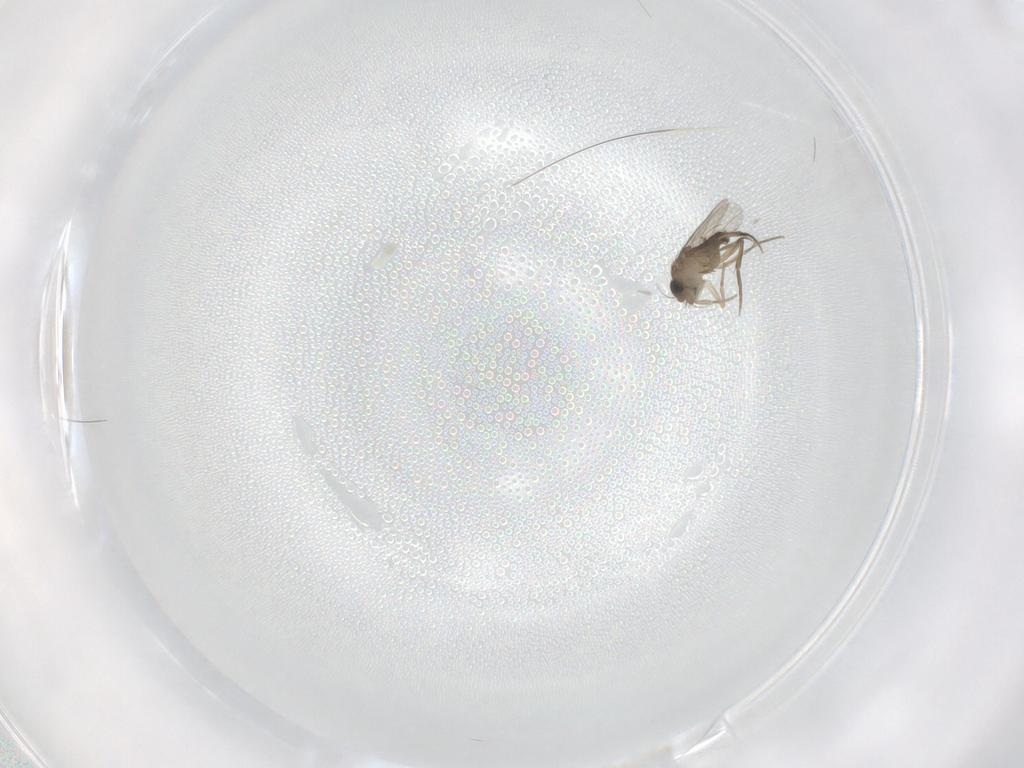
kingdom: Animalia
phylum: Arthropoda
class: Insecta
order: Diptera
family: Phoridae
